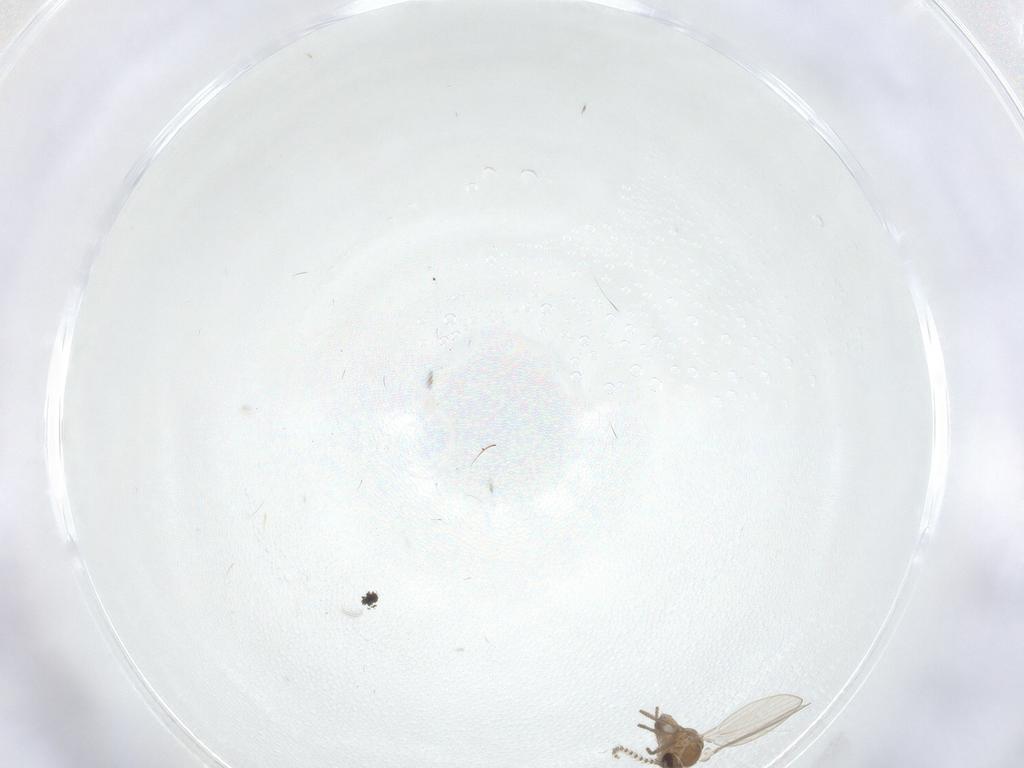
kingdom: Animalia
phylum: Arthropoda
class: Insecta
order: Diptera
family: Psychodidae
